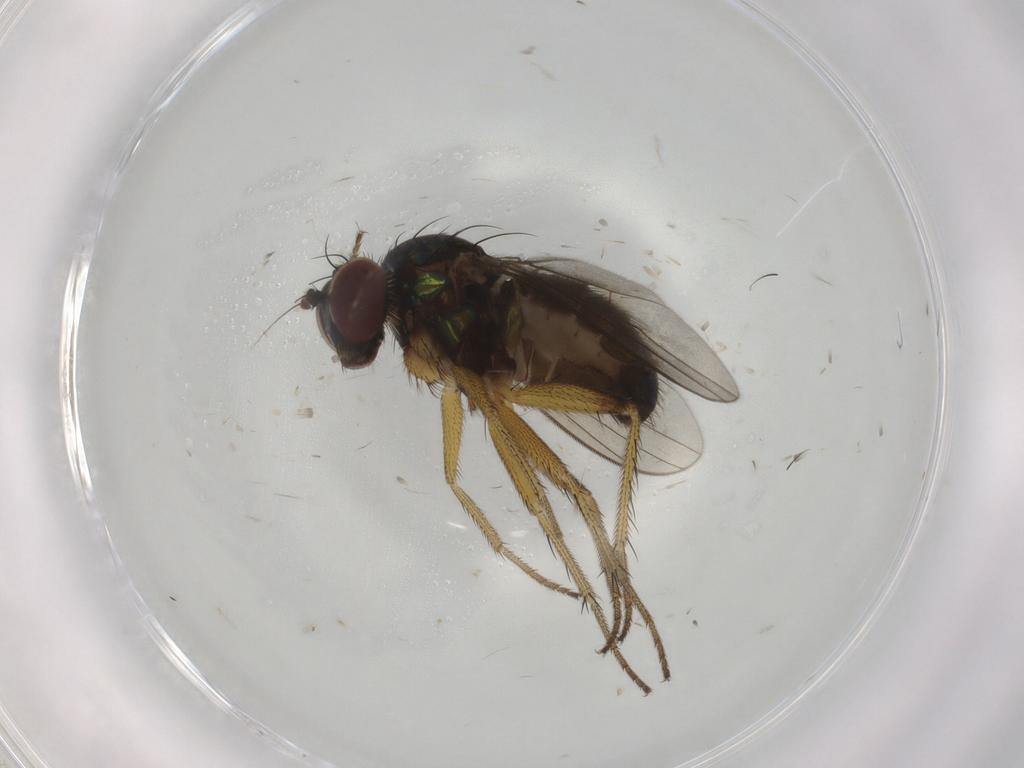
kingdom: Animalia
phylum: Arthropoda
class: Insecta
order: Diptera
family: Dolichopodidae
